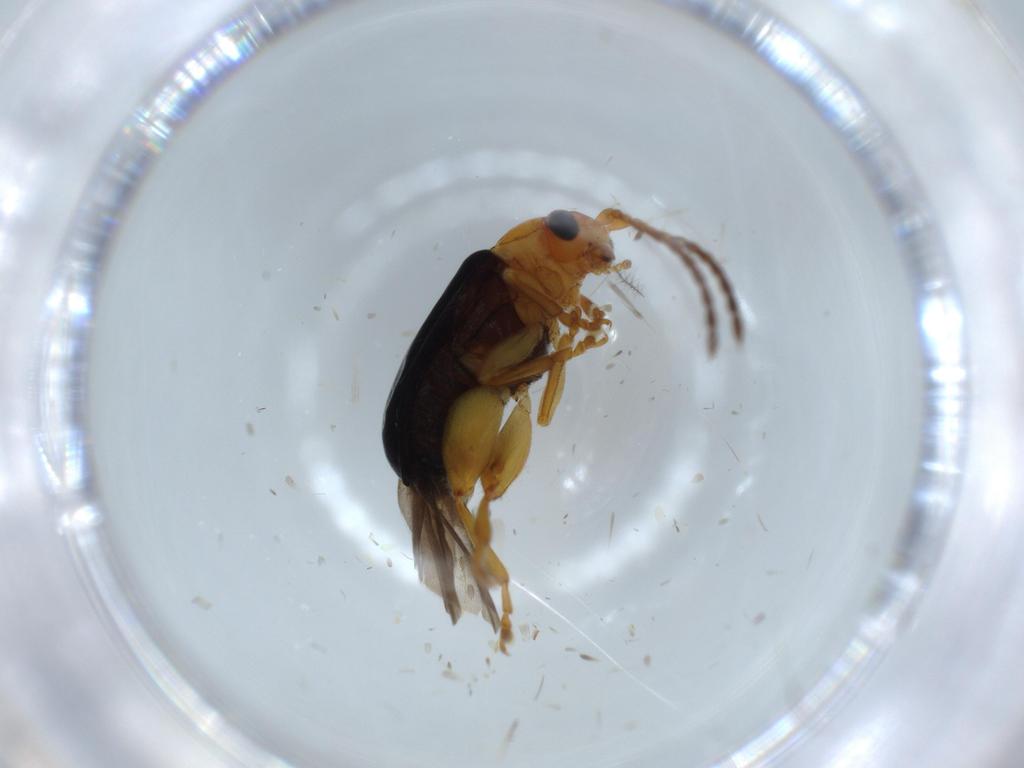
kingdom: Animalia
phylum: Arthropoda
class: Insecta
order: Coleoptera
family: Chrysomelidae
